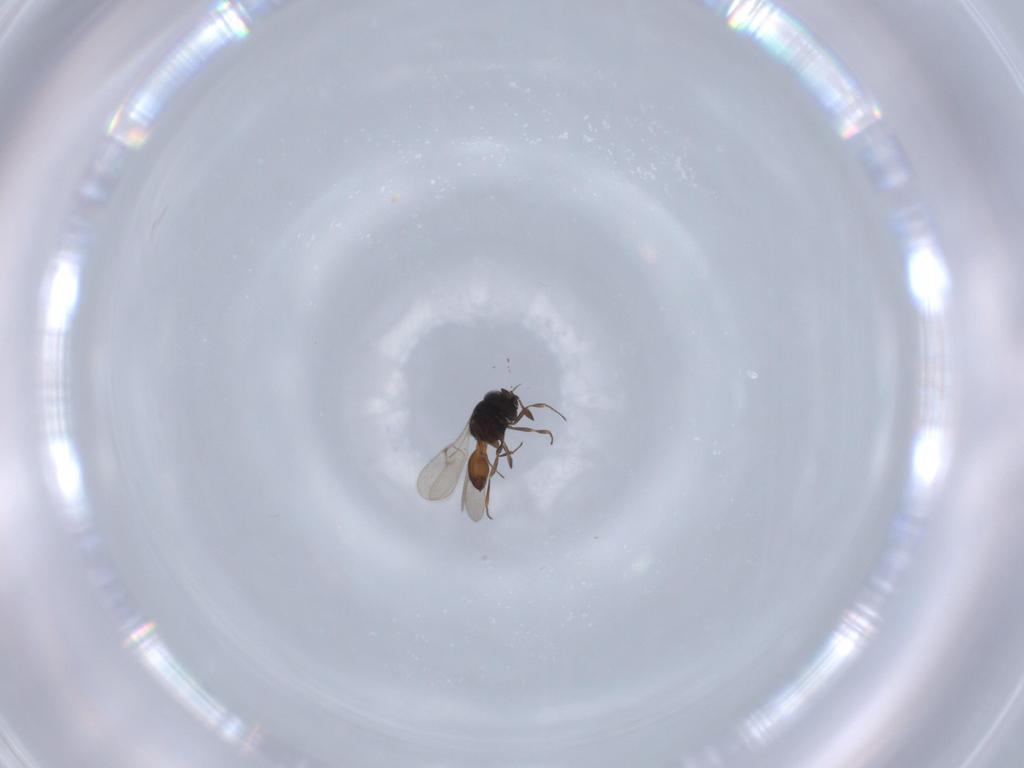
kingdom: Animalia
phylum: Arthropoda
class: Insecta
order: Hymenoptera
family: Scelionidae
